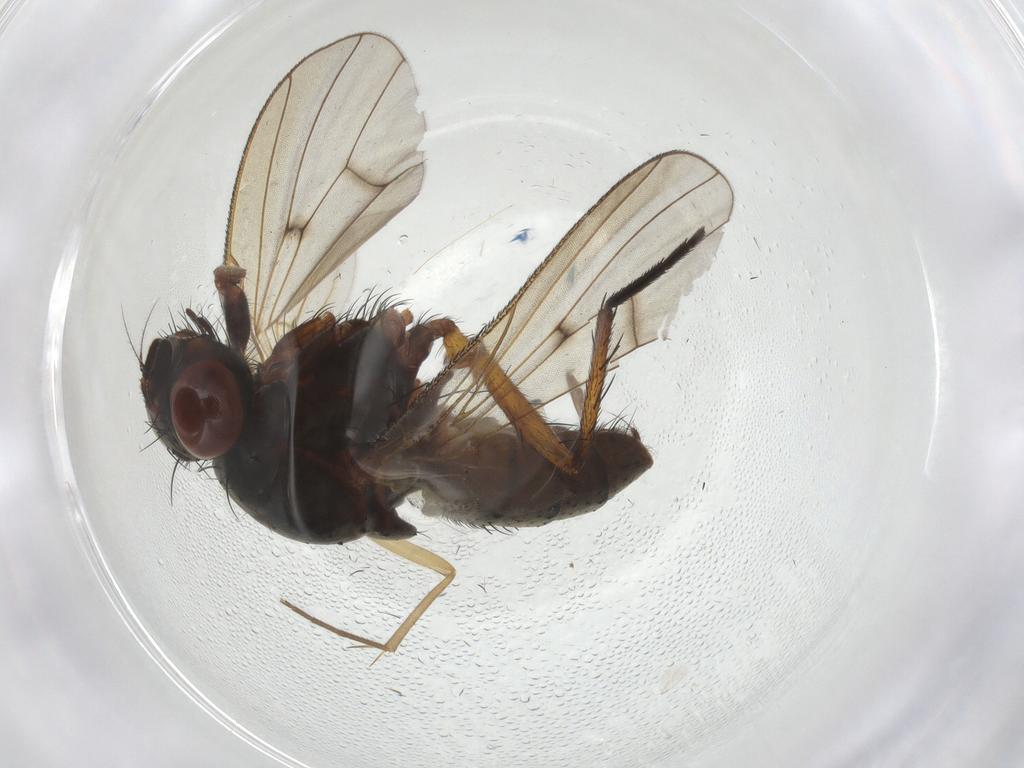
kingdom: Animalia
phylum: Arthropoda
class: Insecta
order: Diptera
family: Anthomyiidae
